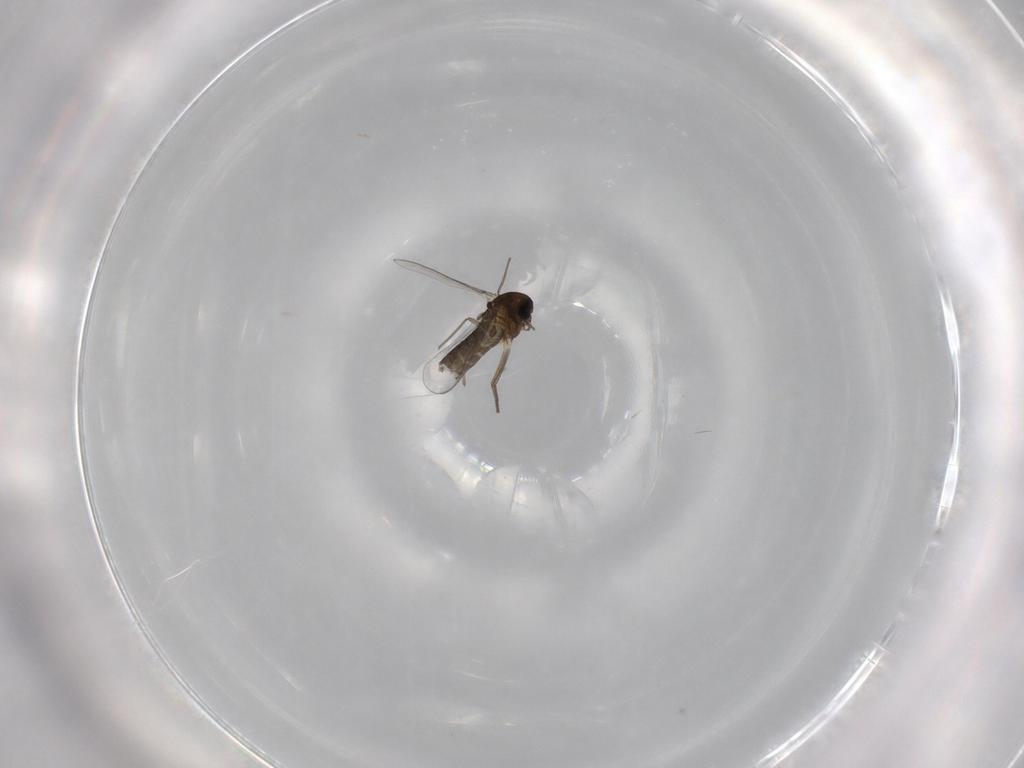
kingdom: Animalia
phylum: Arthropoda
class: Insecta
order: Diptera
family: Chironomidae
